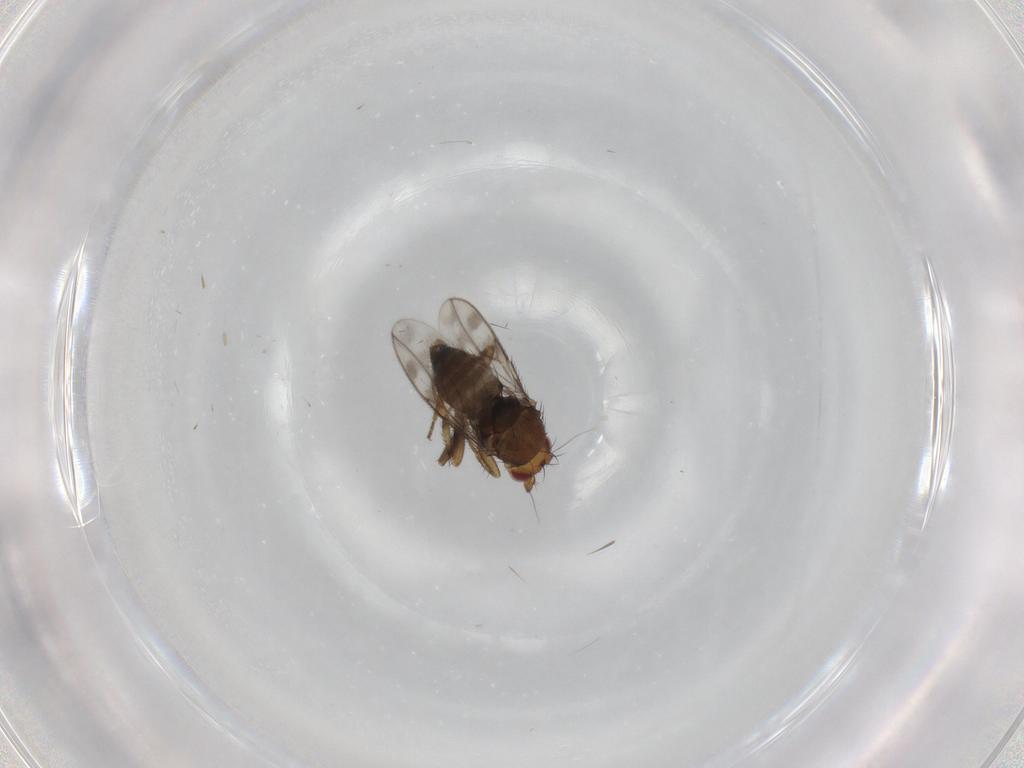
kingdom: Animalia
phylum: Arthropoda
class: Insecta
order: Diptera
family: Sphaeroceridae
